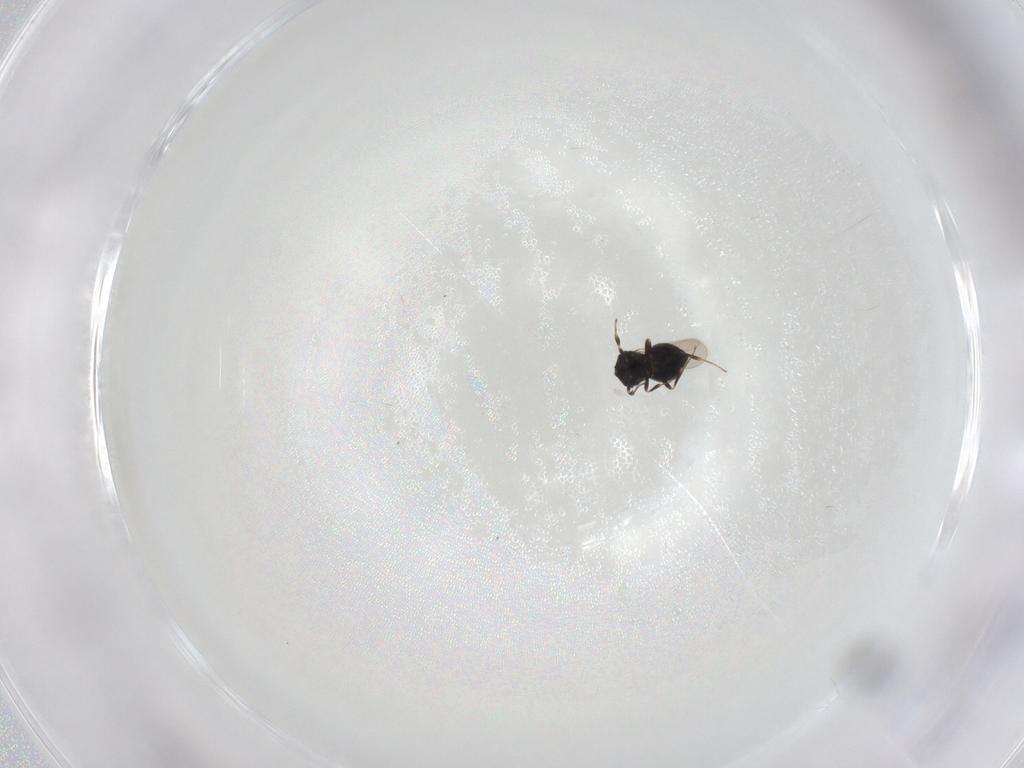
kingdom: Animalia
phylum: Arthropoda
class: Insecta
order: Hymenoptera
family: Scelionidae
